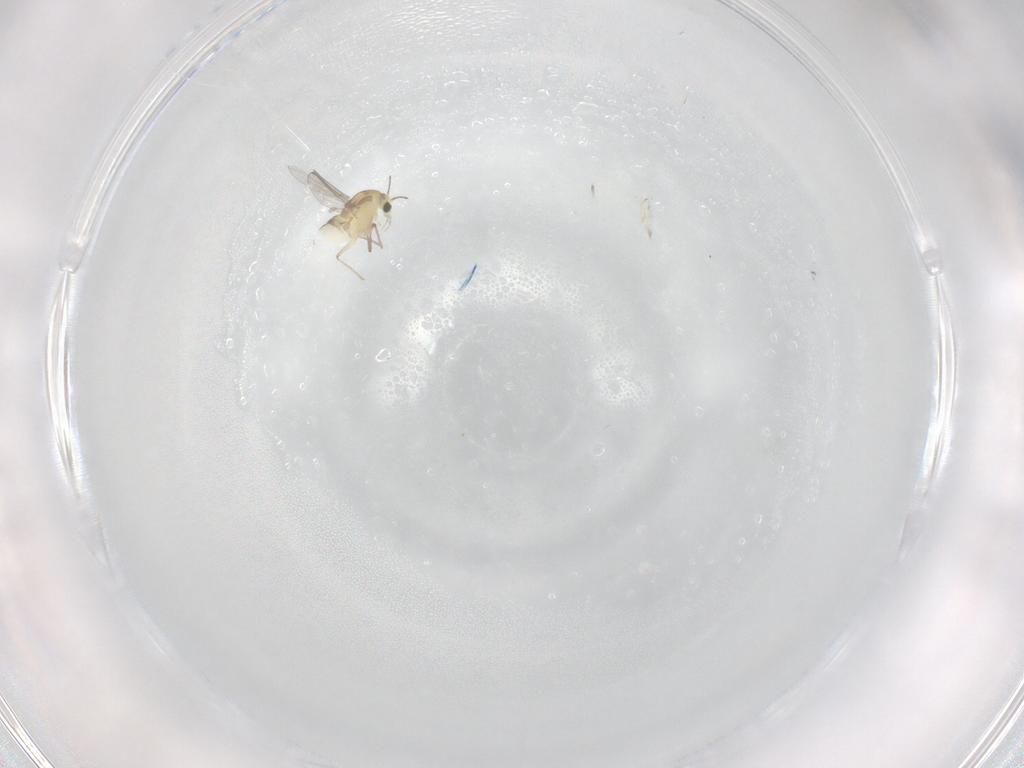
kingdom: Animalia
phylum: Arthropoda
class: Insecta
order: Diptera
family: Chironomidae
